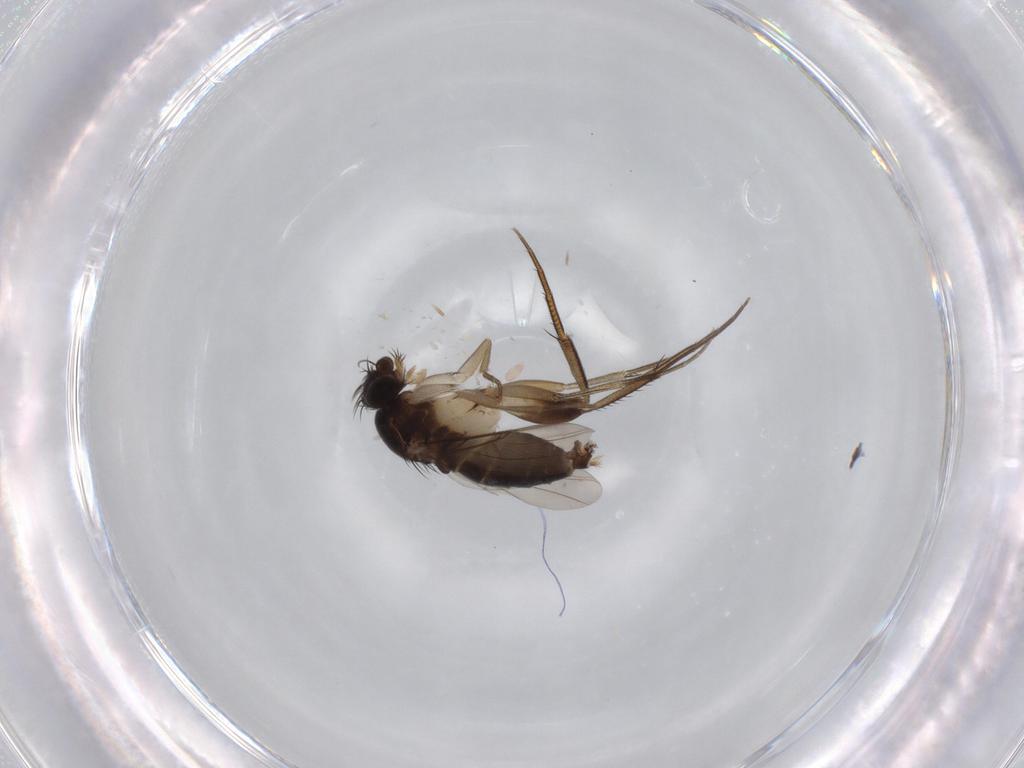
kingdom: Animalia
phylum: Arthropoda
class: Insecta
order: Diptera
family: Phoridae
